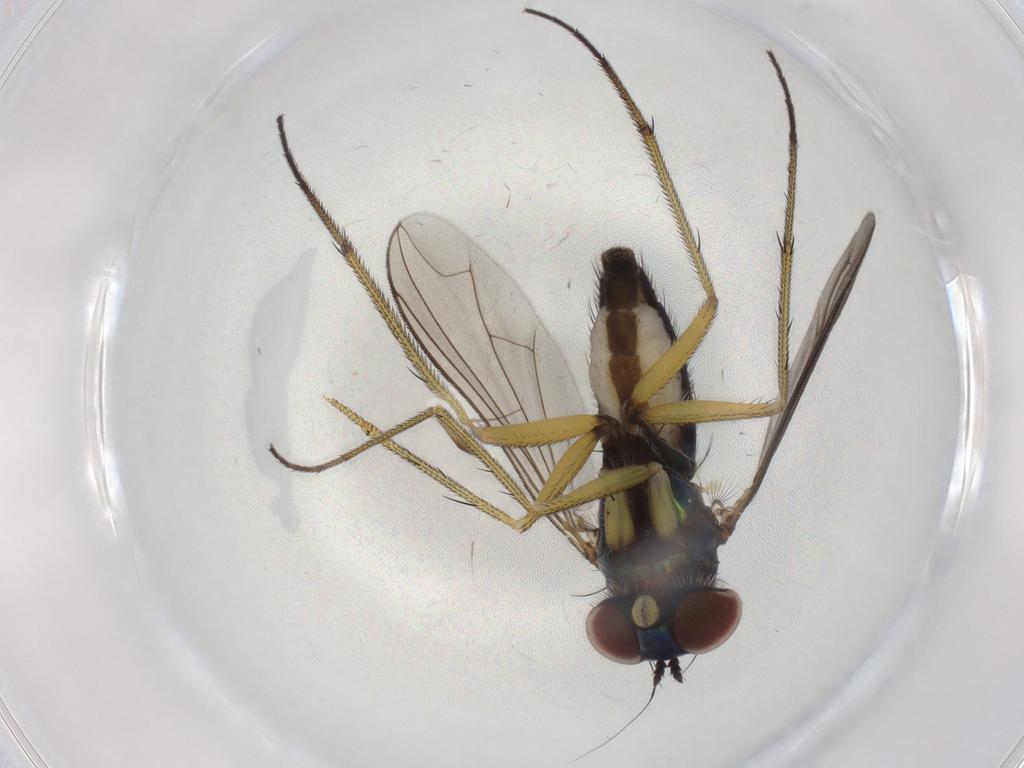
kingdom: Animalia
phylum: Arthropoda
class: Insecta
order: Diptera
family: Dolichopodidae
